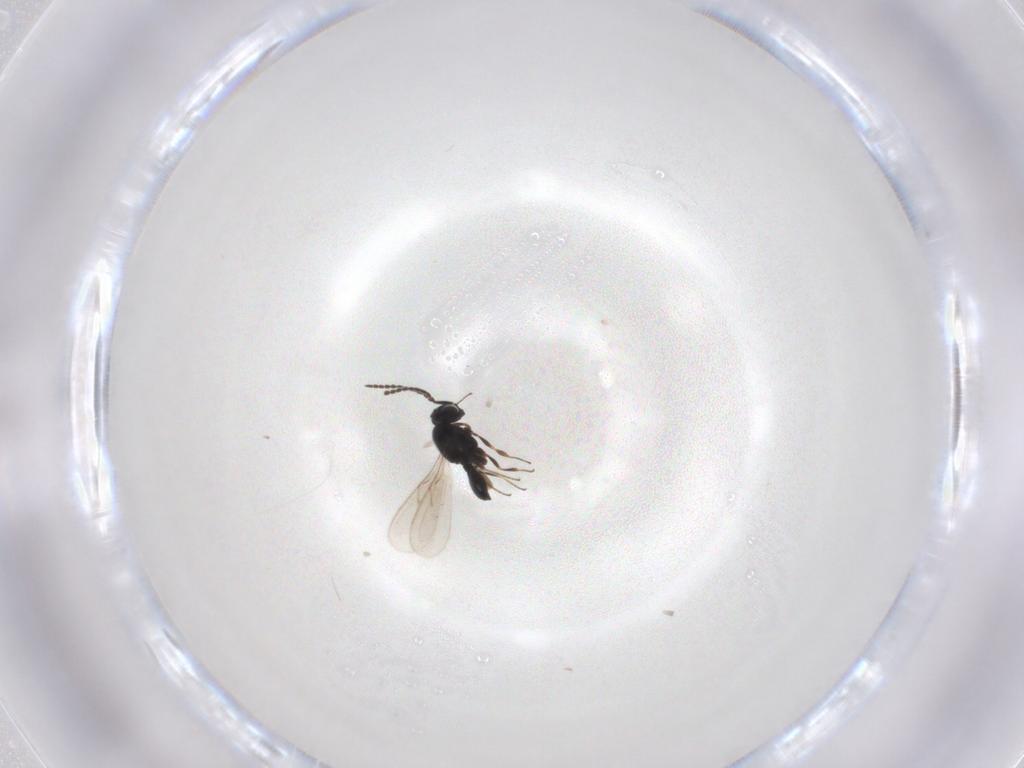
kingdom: Animalia
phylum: Arthropoda
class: Insecta
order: Hymenoptera
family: Scelionidae
